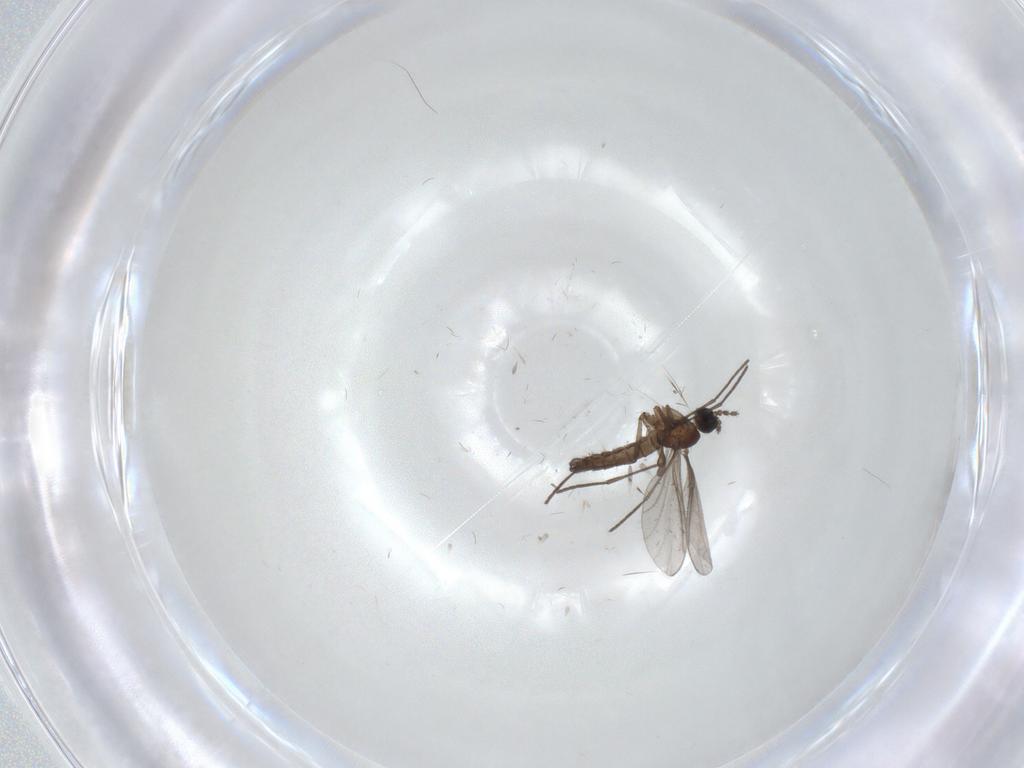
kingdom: Animalia
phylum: Arthropoda
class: Insecta
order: Diptera
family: Cecidomyiidae
